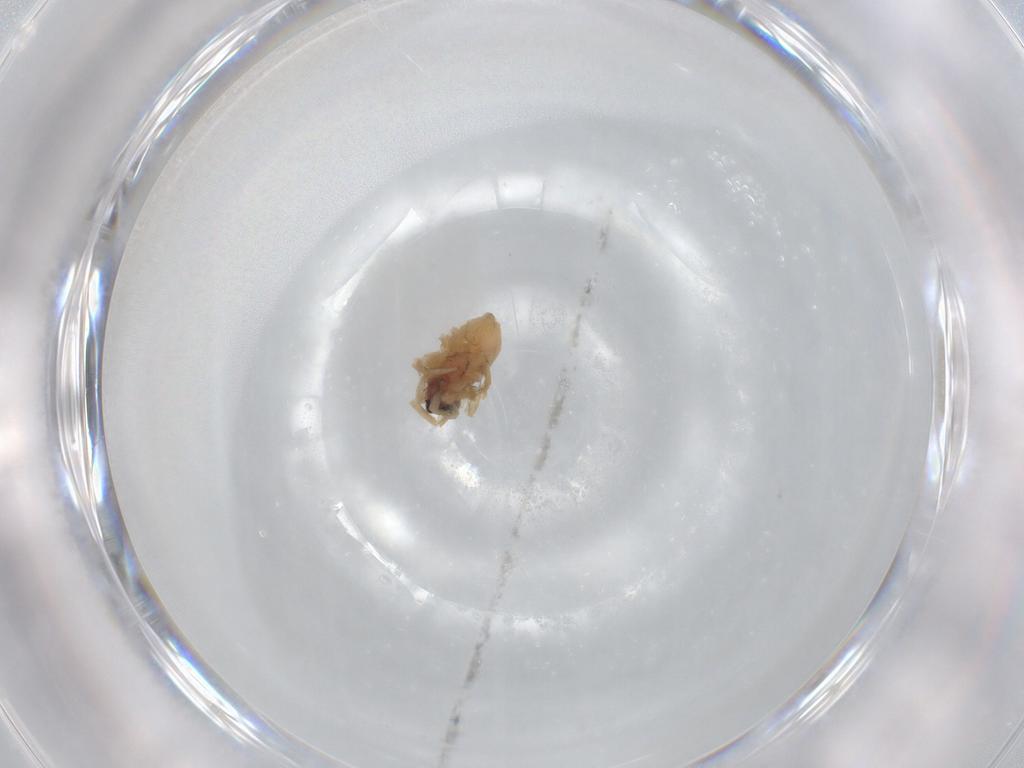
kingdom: Animalia
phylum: Arthropoda
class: Arachnida
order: Araneae
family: Lycosidae
